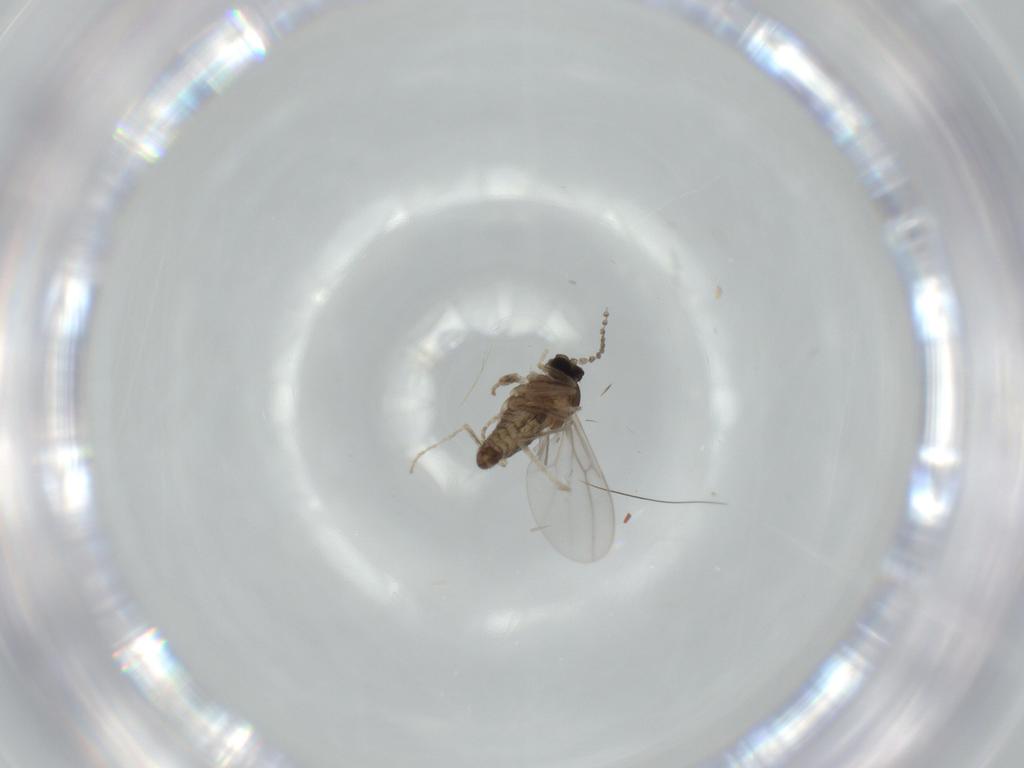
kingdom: Animalia
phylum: Arthropoda
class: Insecta
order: Diptera
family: Cecidomyiidae
